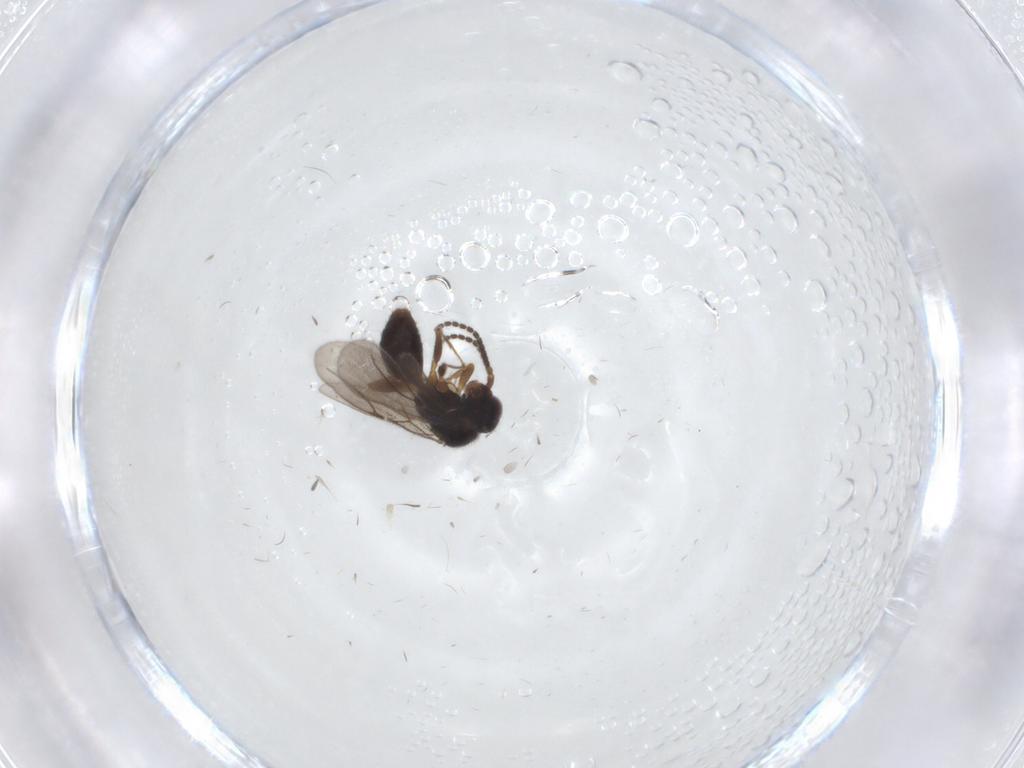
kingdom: Animalia
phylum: Arthropoda
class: Insecta
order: Hymenoptera
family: Bethylidae
